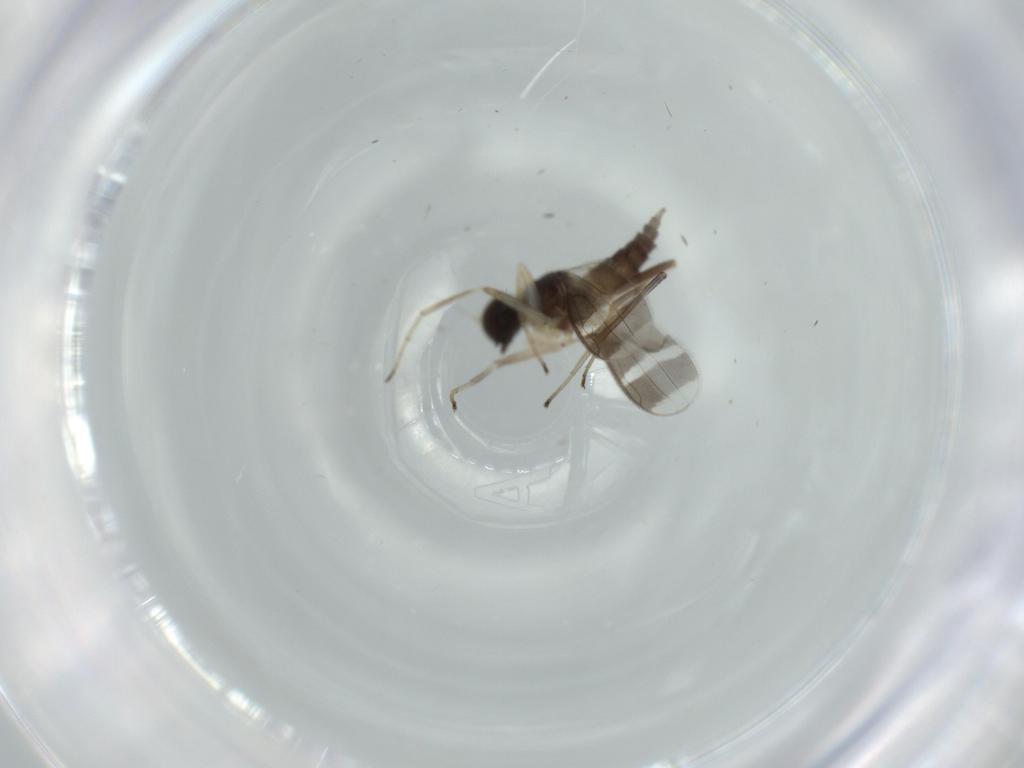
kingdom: Animalia
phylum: Arthropoda
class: Insecta
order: Diptera
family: Hybotidae
